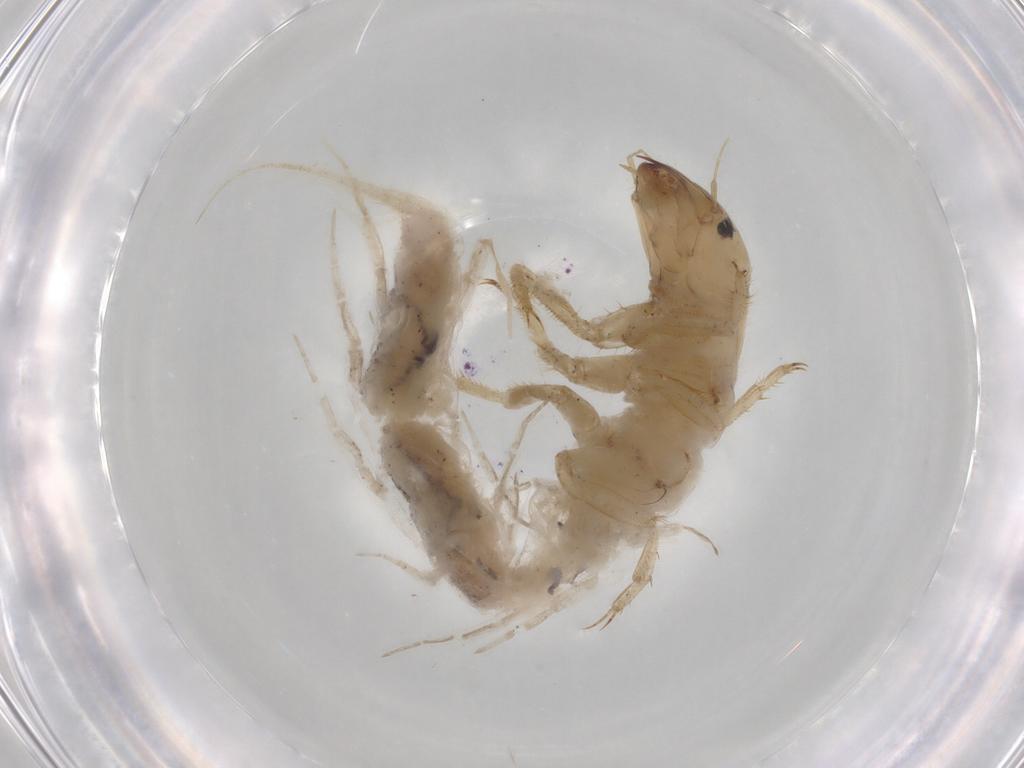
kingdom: Animalia
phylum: Arthropoda
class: Insecta
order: Megaloptera
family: Sialidae
